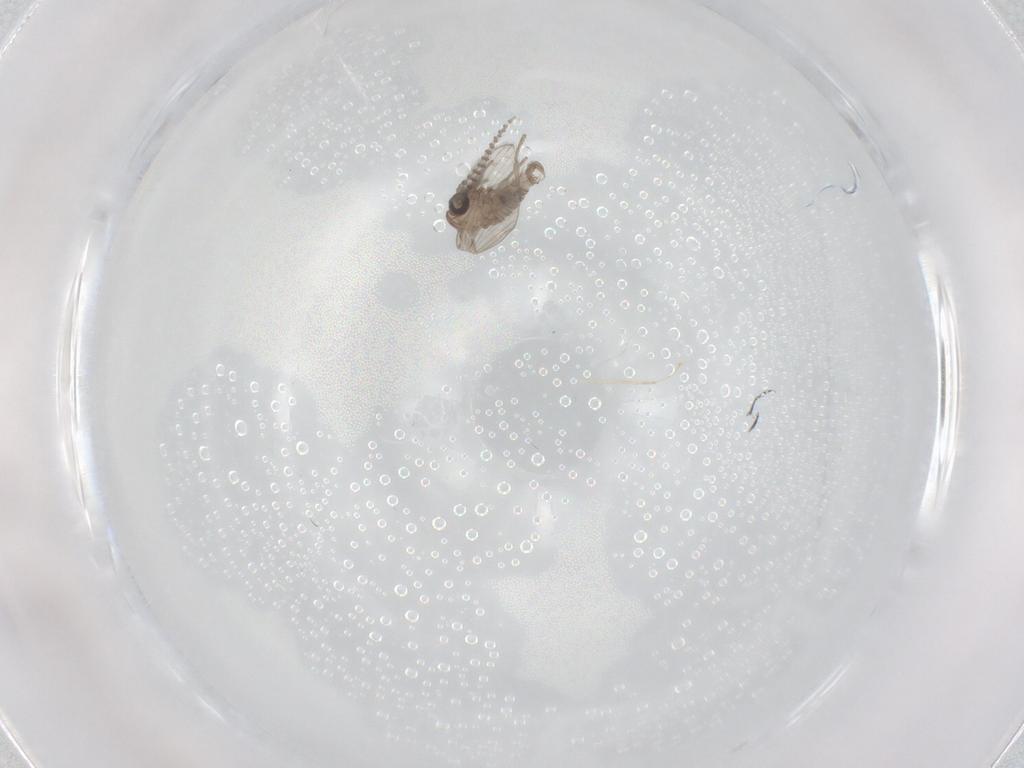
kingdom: Animalia
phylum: Arthropoda
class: Insecta
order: Diptera
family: Psychodidae
